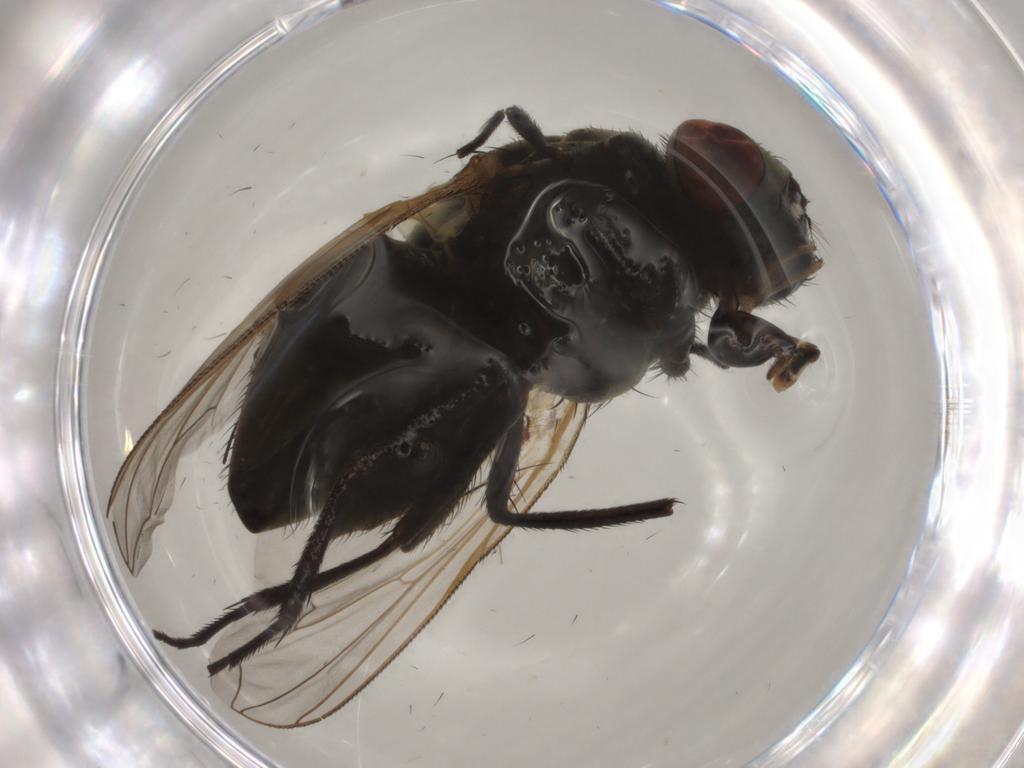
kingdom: Animalia
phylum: Arthropoda
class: Insecta
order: Diptera
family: Muscidae
